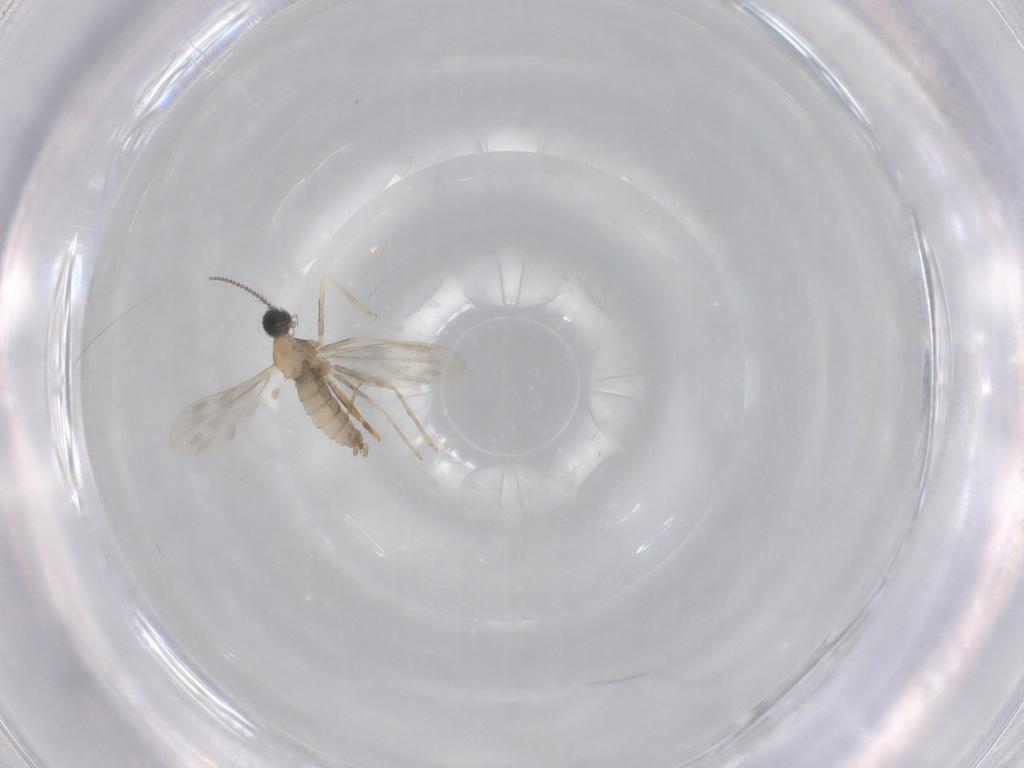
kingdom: Animalia
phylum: Arthropoda
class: Insecta
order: Diptera
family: Cecidomyiidae
